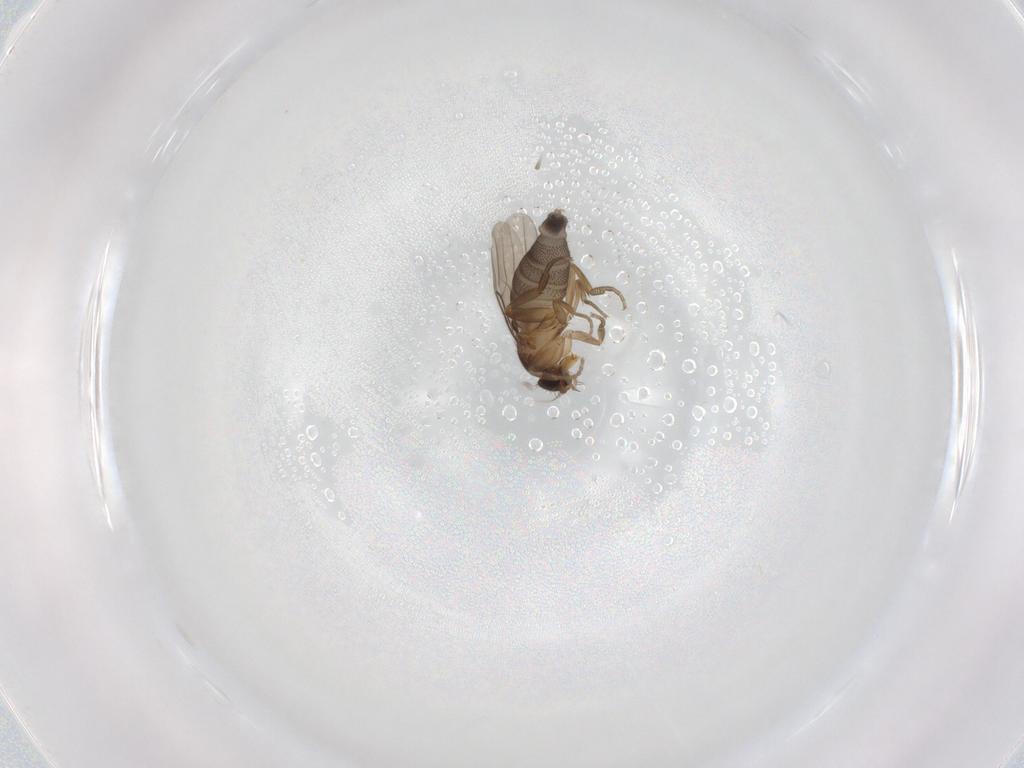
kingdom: Animalia
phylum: Arthropoda
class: Insecta
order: Diptera
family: Phoridae
